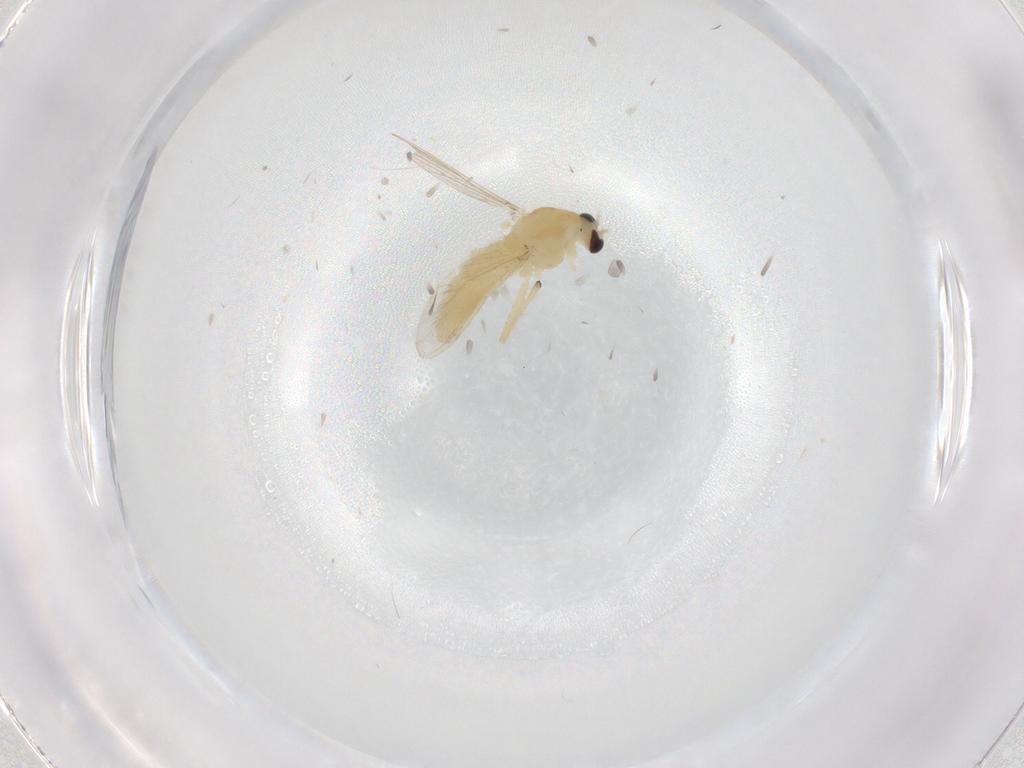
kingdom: Animalia
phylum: Arthropoda
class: Insecta
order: Diptera
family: Chironomidae
